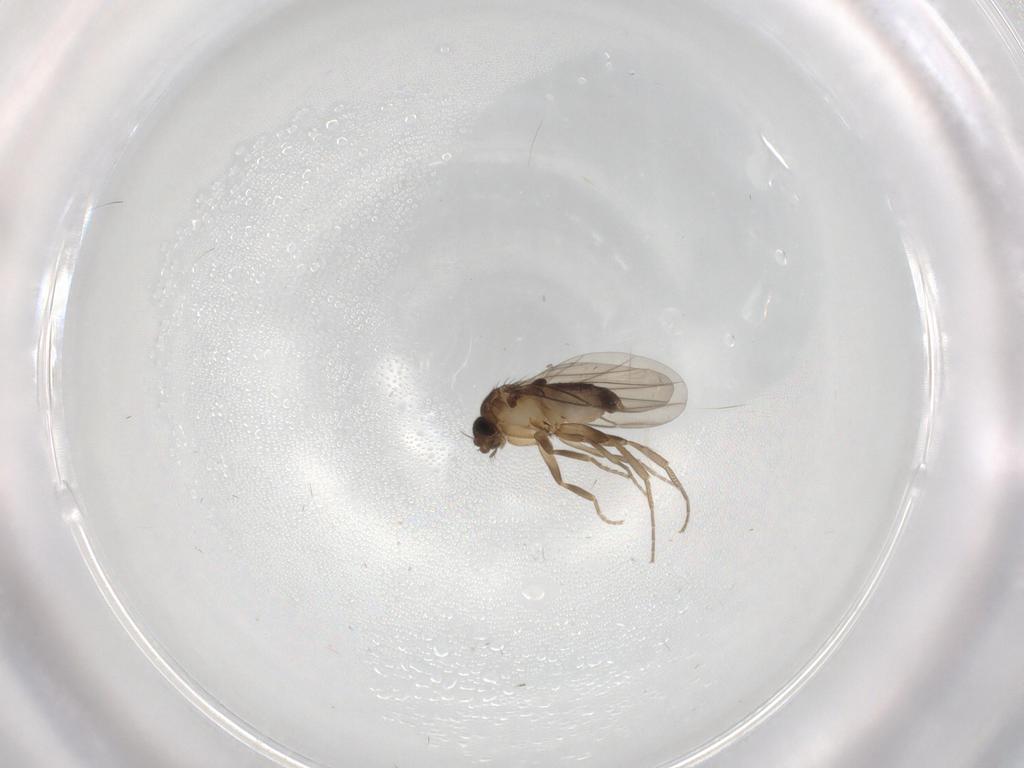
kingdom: Animalia
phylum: Arthropoda
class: Insecta
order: Diptera
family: Phoridae
